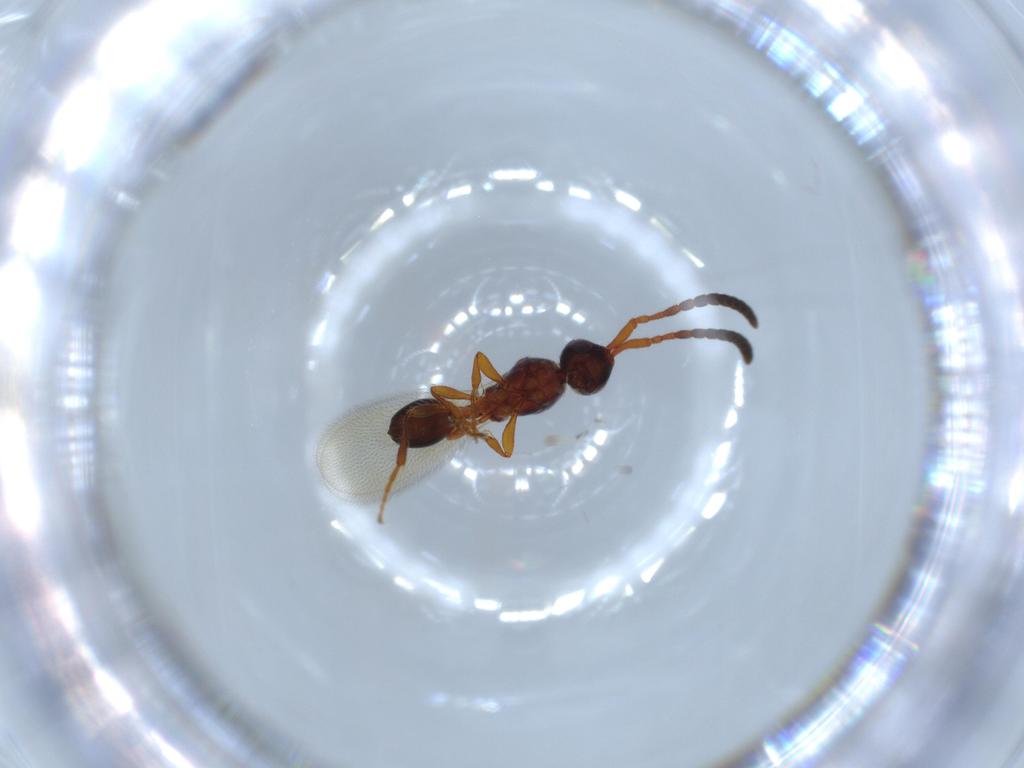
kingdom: Animalia
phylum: Arthropoda
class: Insecta
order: Hymenoptera
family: Diapriidae
